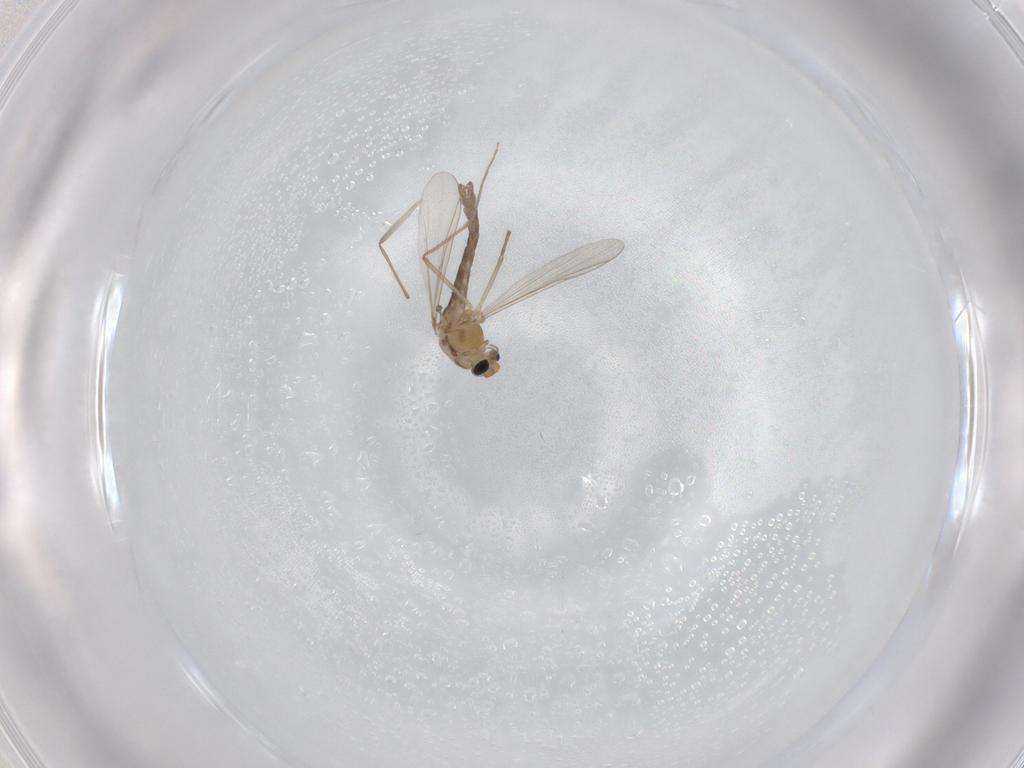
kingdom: Animalia
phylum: Arthropoda
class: Insecta
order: Diptera
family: Chironomidae
